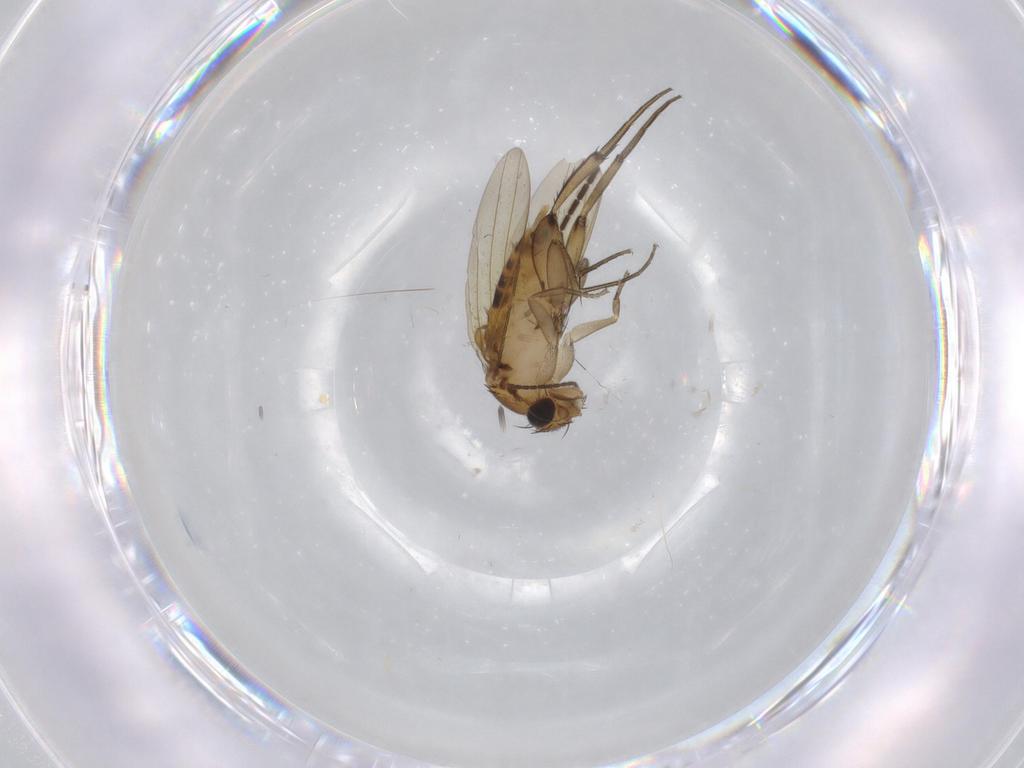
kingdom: Animalia
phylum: Arthropoda
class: Insecta
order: Diptera
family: Phoridae
